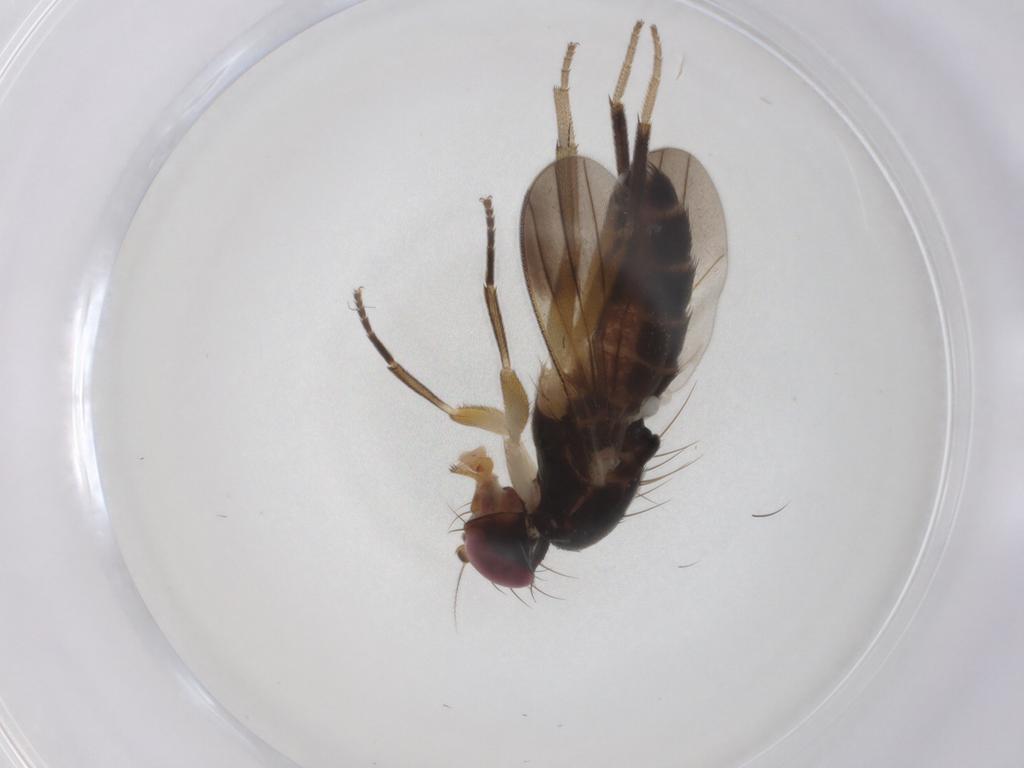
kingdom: Animalia
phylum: Arthropoda
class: Insecta
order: Diptera
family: Clusiidae
